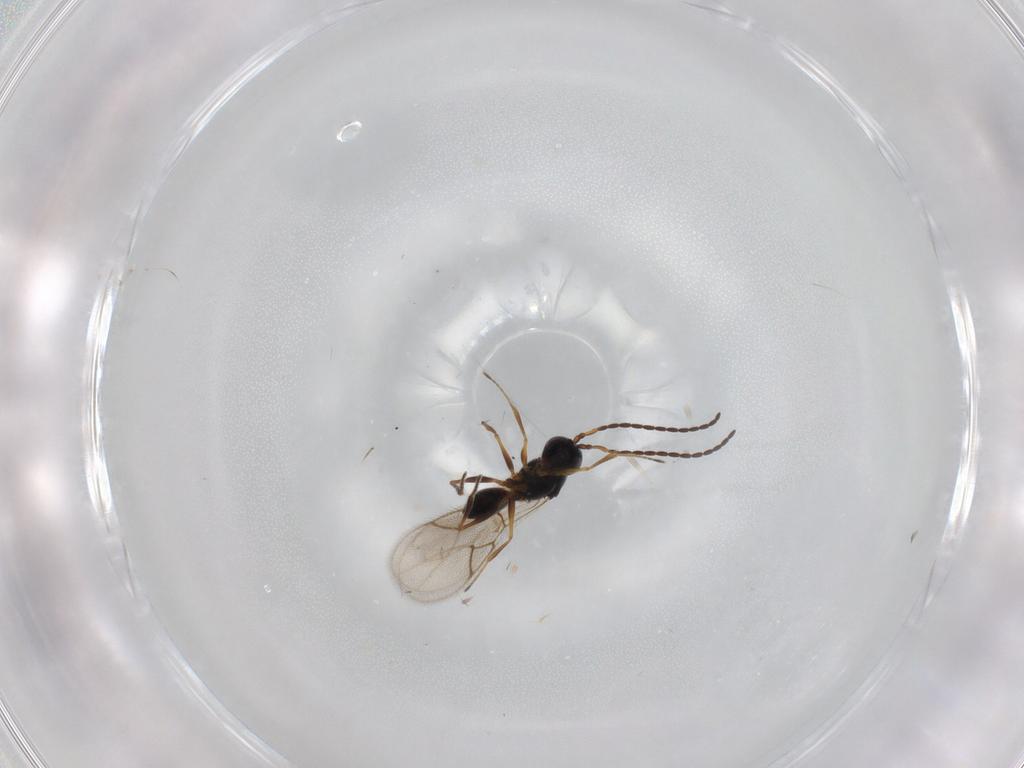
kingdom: Animalia
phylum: Arthropoda
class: Insecta
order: Hymenoptera
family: Figitidae
